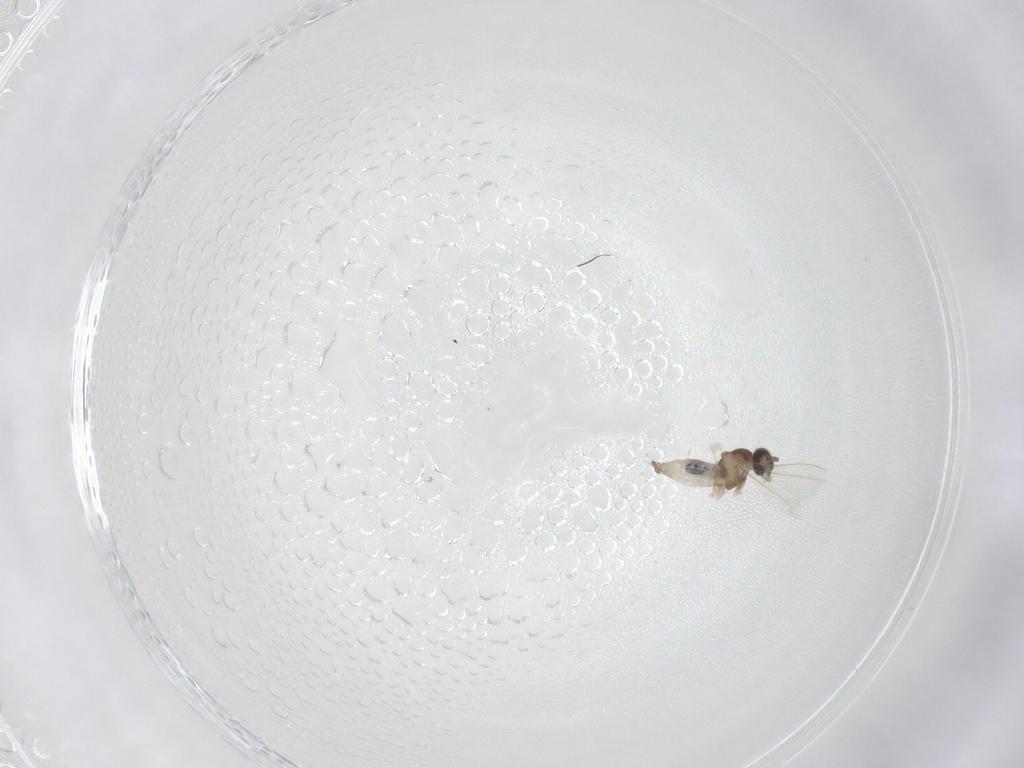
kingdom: Animalia
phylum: Arthropoda
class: Insecta
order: Diptera
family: Cecidomyiidae
